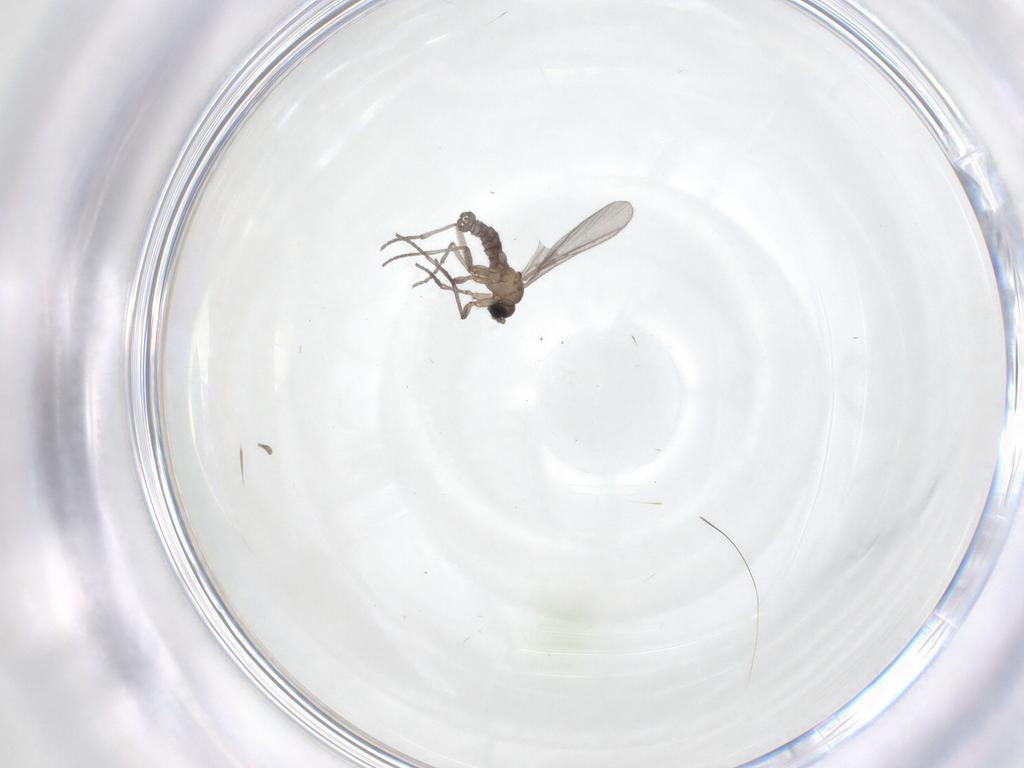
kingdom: Animalia
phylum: Arthropoda
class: Insecta
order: Diptera
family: Sciaridae
